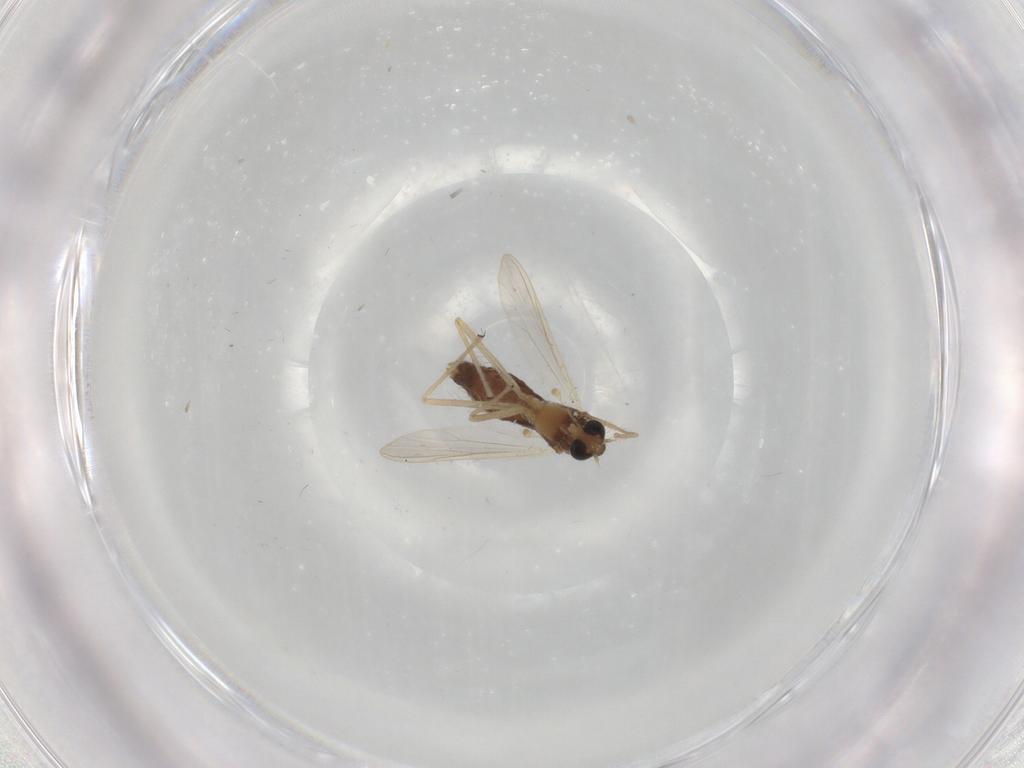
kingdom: Animalia
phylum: Arthropoda
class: Insecta
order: Diptera
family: Chironomidae
